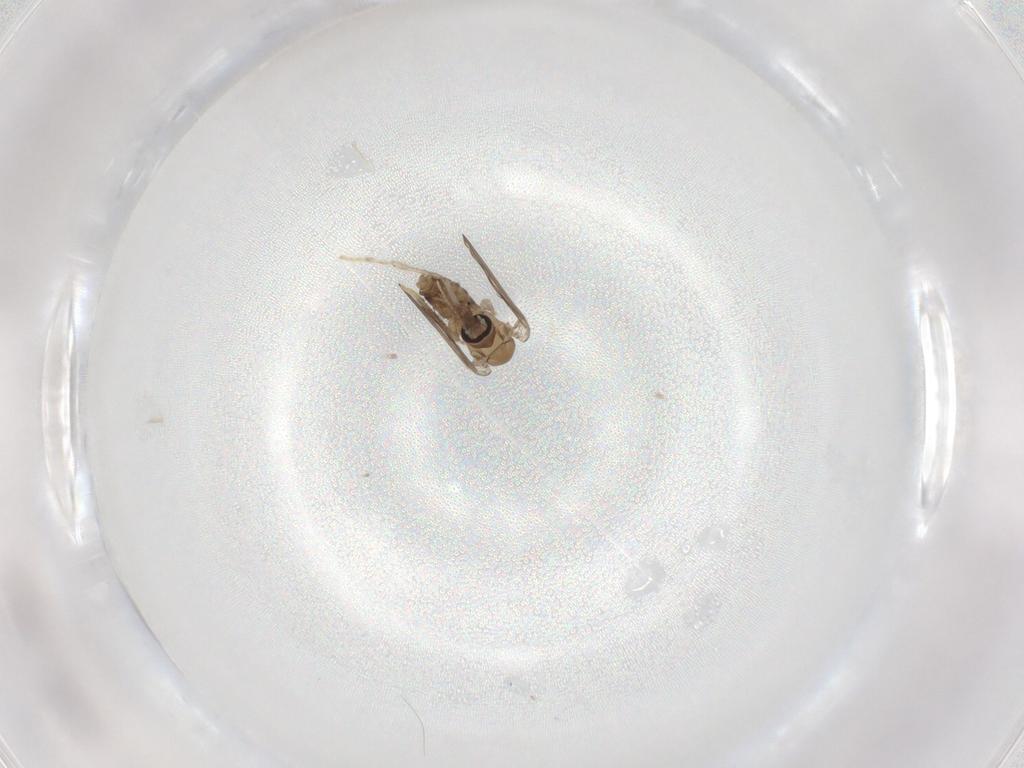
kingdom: Animalia
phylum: Arthropoda
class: Insecta
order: Diptera
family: Psychodidae
